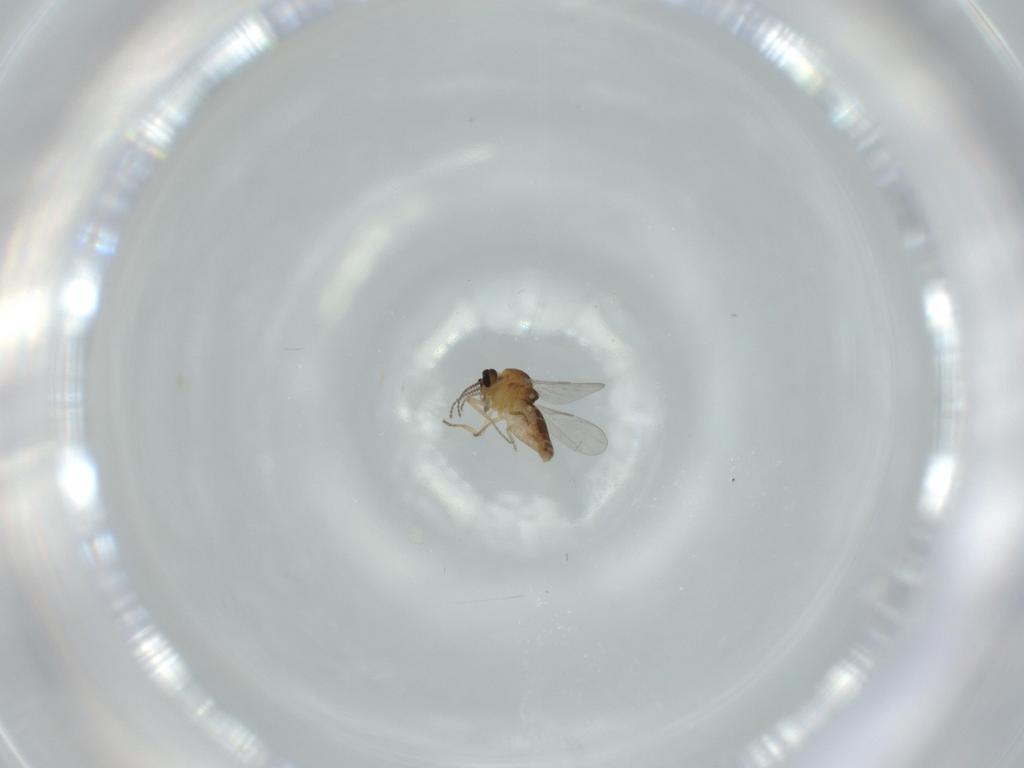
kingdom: Animalia
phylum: Arthropoda
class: Insecta
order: Diptera
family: Ceratopogonidae
